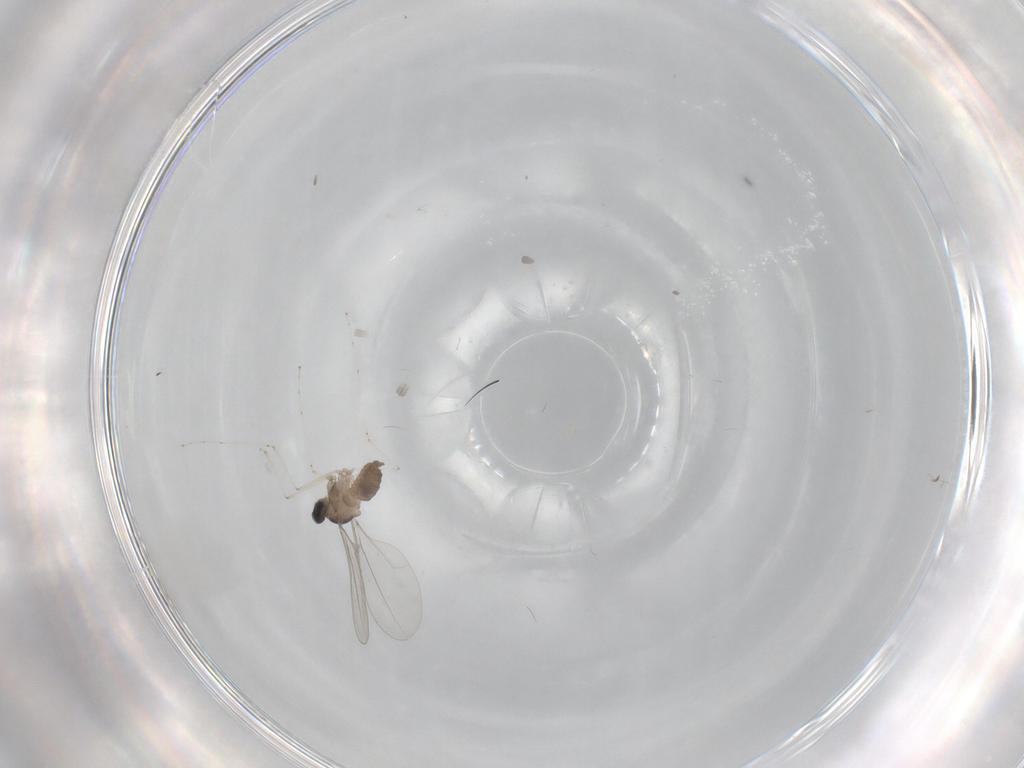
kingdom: Animalia
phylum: Arthropoda
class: Insecta
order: Diptera
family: Cecidomyiidae
